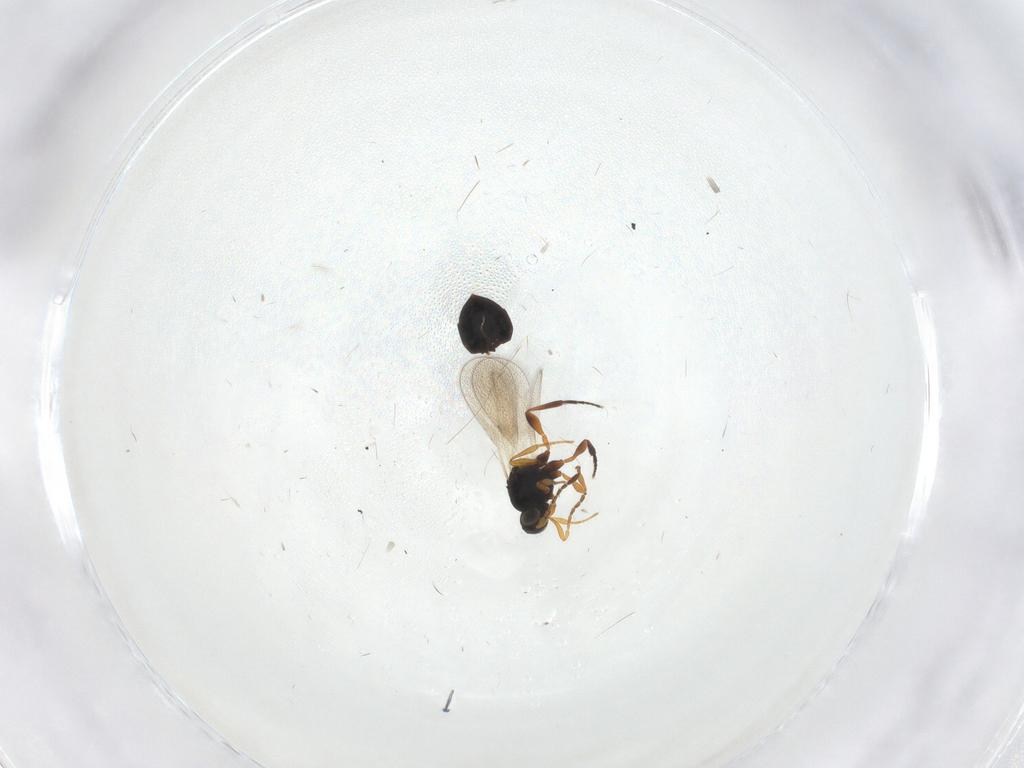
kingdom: Animalia
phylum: Arthropoda
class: Insecta
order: Hymenoptera
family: Platygastridae
